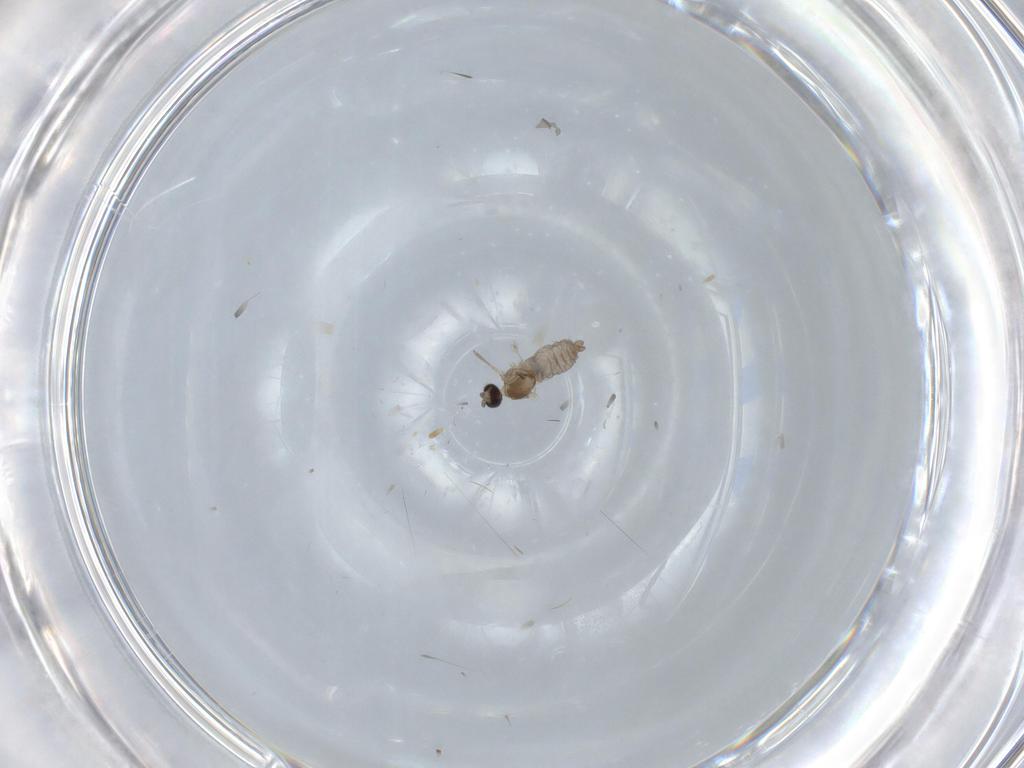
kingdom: Animalia
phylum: Arthropoda
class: Insecta
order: Diptera
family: Cecidomyiidae
